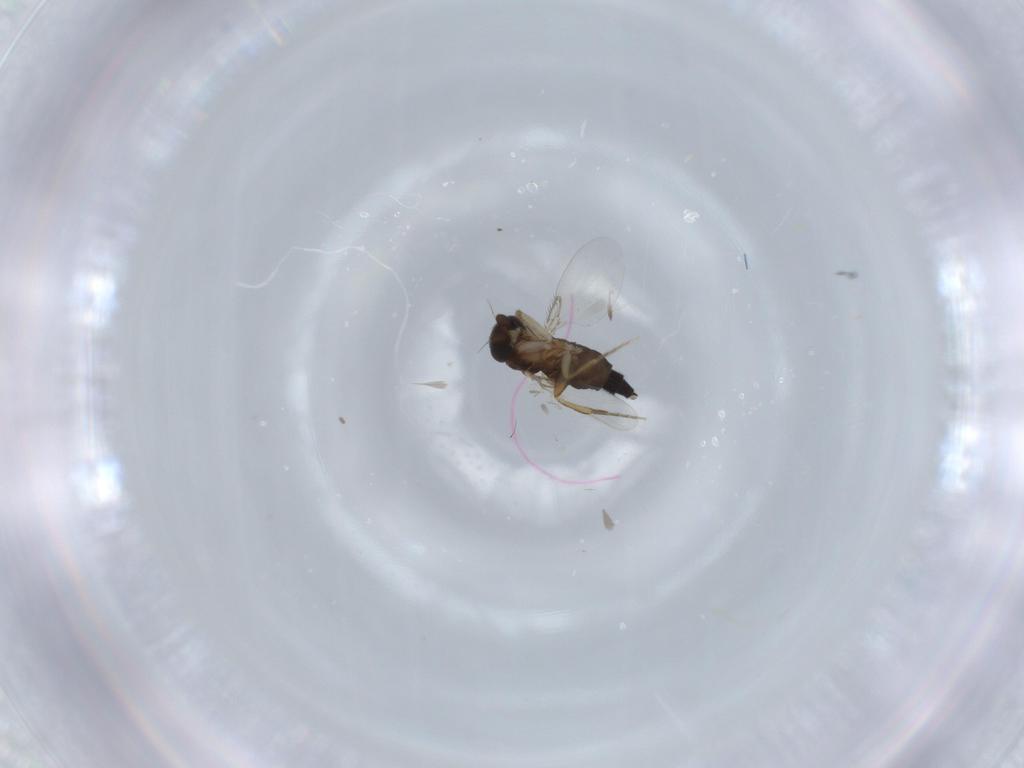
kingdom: Animalia
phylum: Arthropoda
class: Insecta
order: Diptera
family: Phoridae
